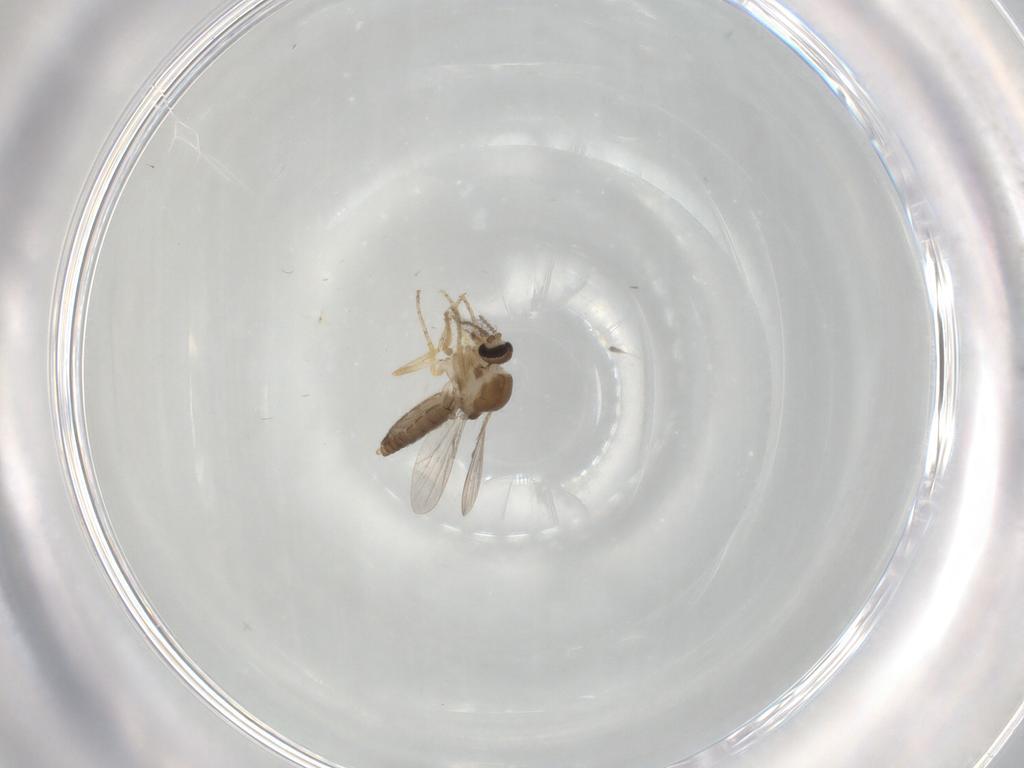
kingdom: Animalia
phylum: Arthropoda
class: Insecta
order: Diptera
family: Ceratopogonidae
